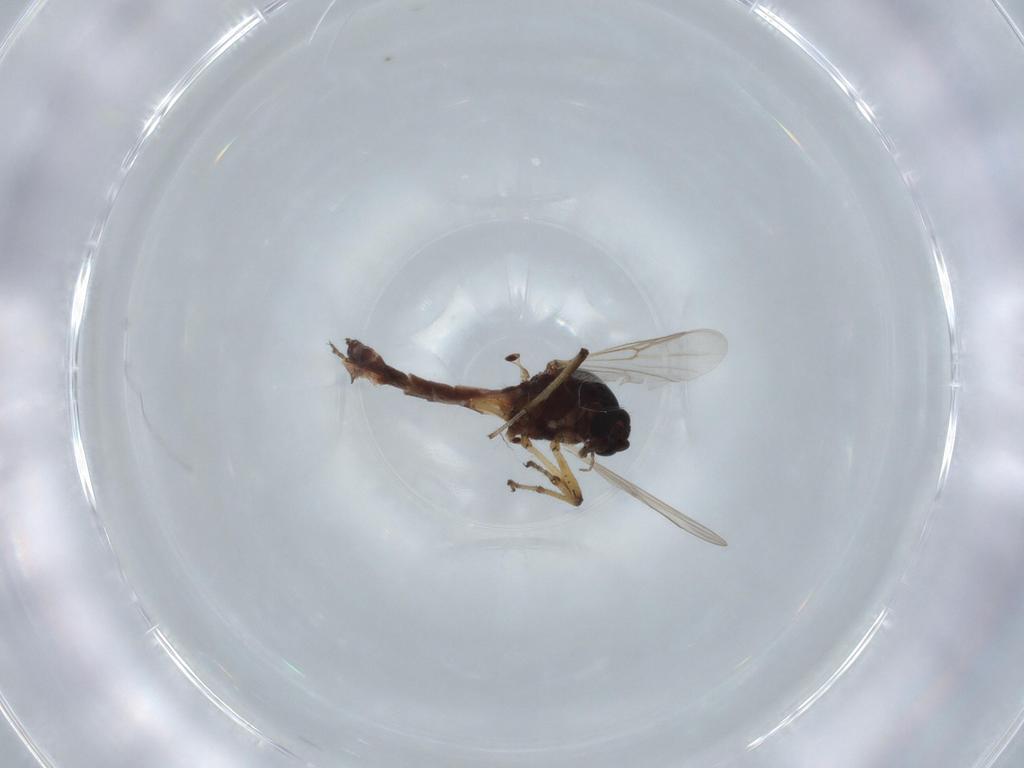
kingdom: Animalia
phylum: Arthropoda
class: Insecta
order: Diptera
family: Ceratopogonidae
